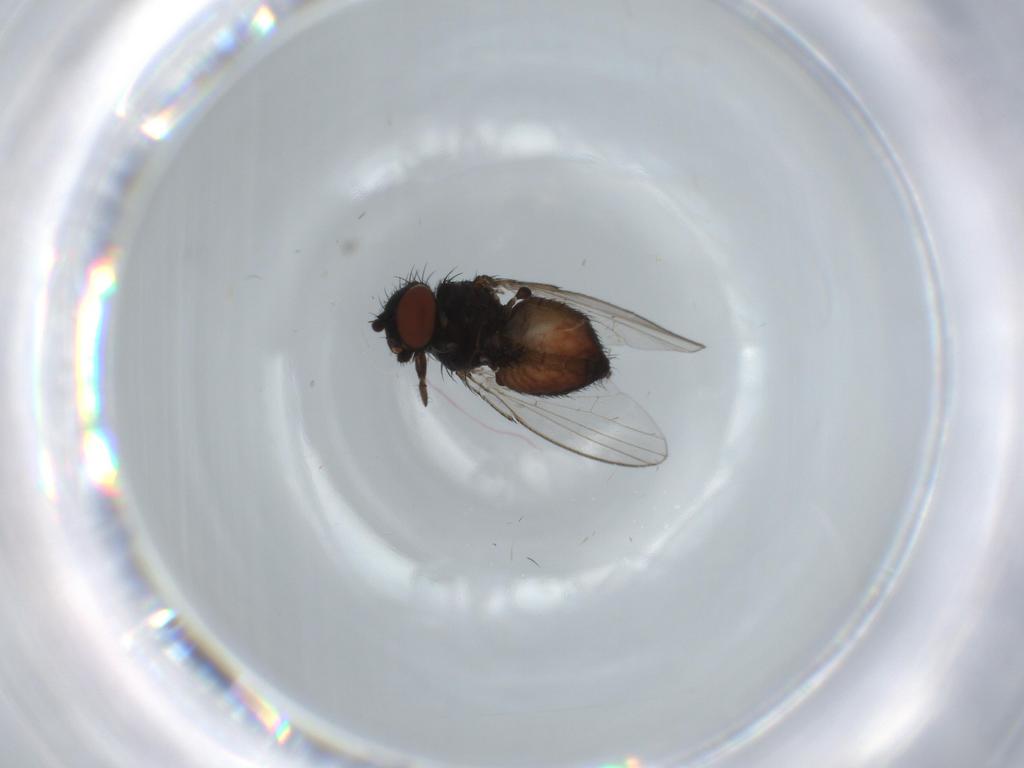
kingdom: Animalia
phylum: Arthropoda
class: Insecta
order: Diptera
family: Milichiidae
